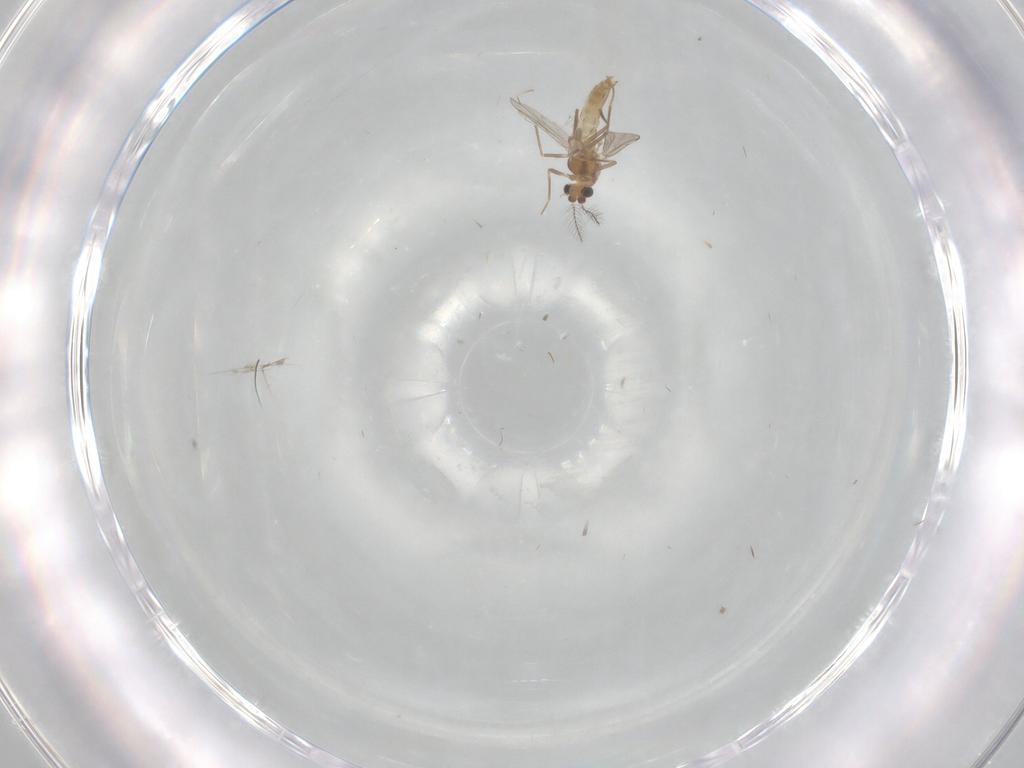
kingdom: Animalia
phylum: Arthropoda
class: Insecta
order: Diptera
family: Chironomidae
